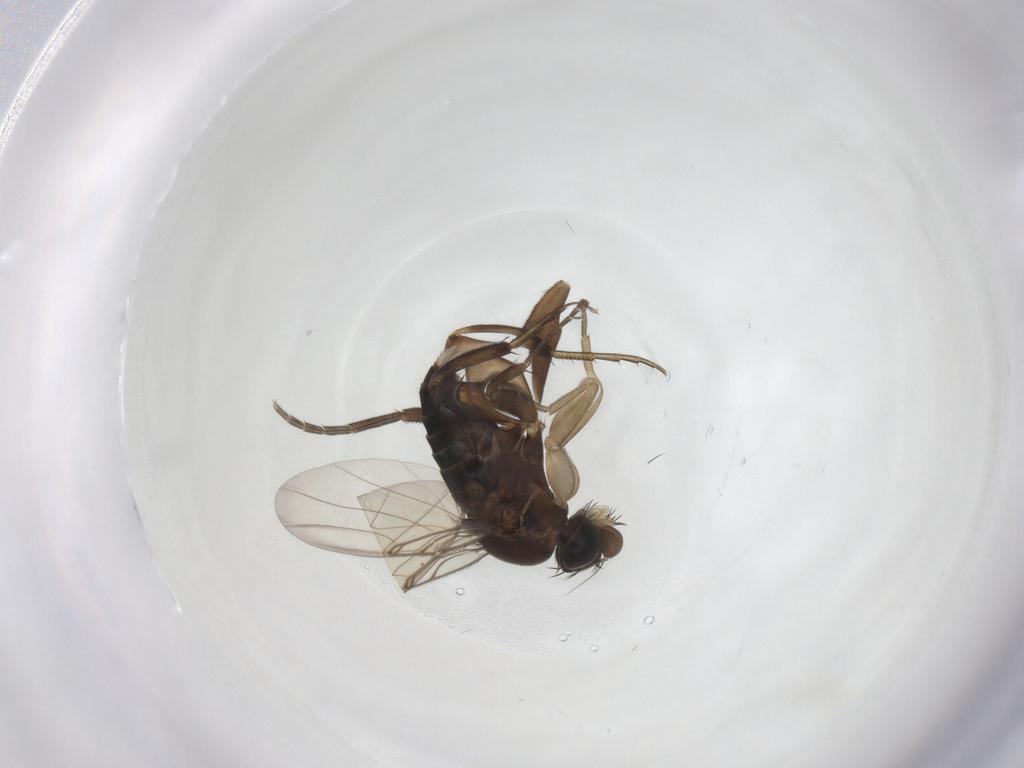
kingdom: Animalia
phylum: Arthropoda
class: Insecta
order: Diptera
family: Phoridae
